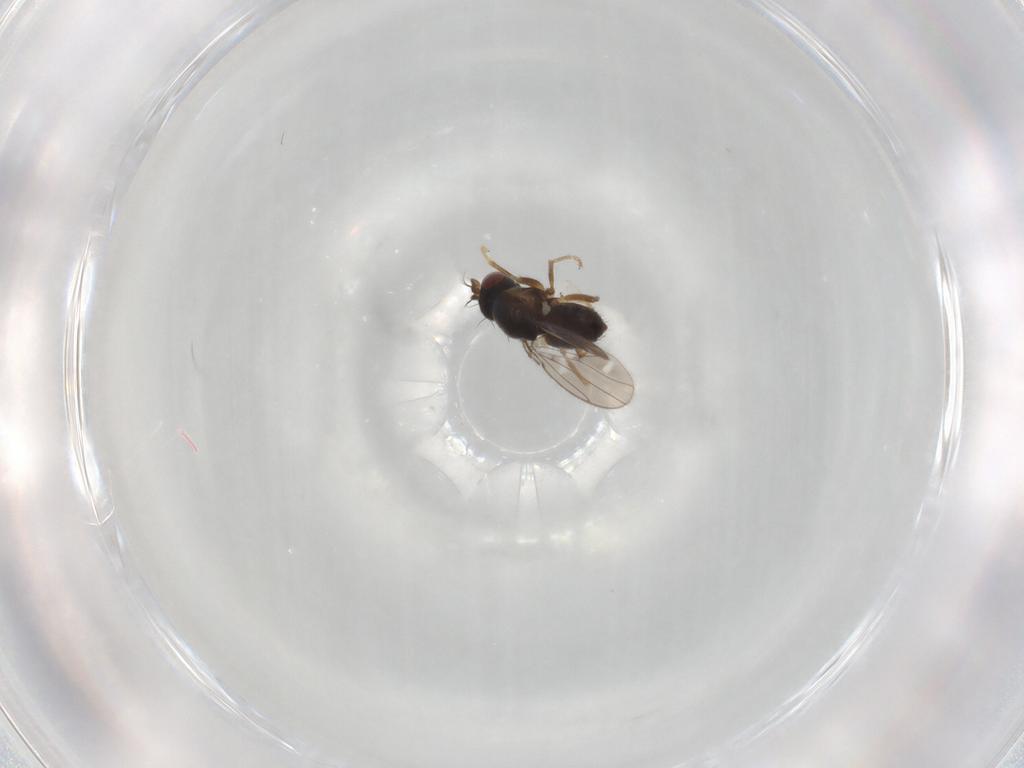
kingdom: Animalia
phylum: Arthropoda
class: Insecta
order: Diptera
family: Ephydridae
